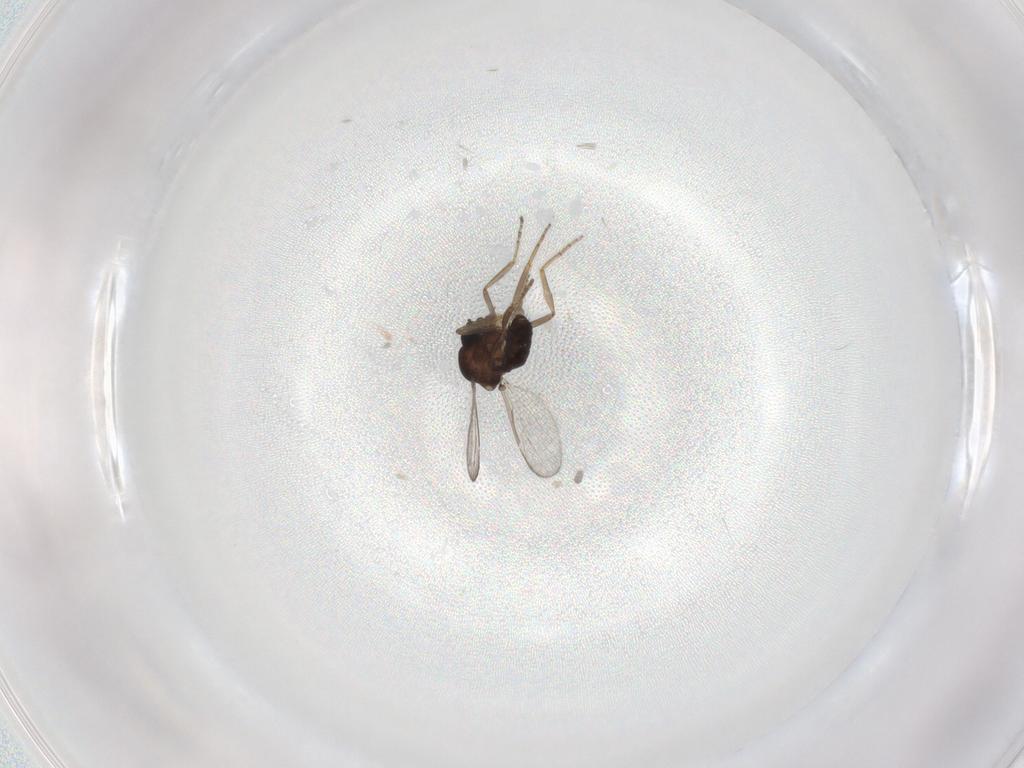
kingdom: Animalia
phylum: Arthropoda
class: Insecta
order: Diptera
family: Ceratopogonidae
